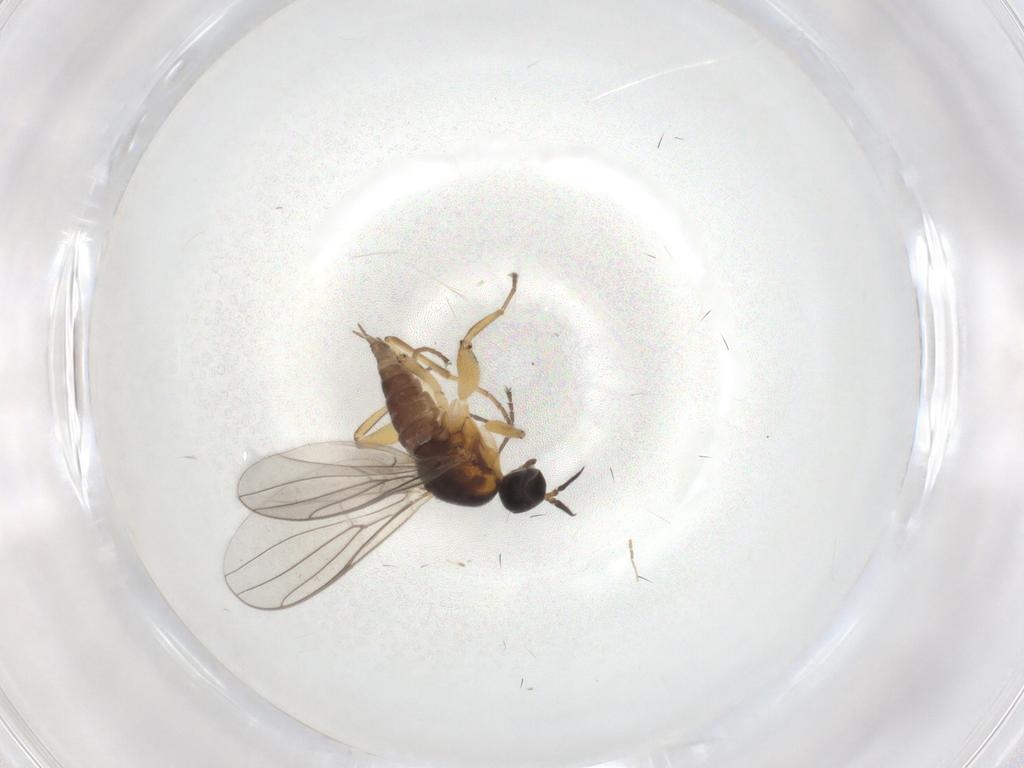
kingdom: Animalia
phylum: Arthropoda
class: Insecta
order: Diptera
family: Hybotidae
